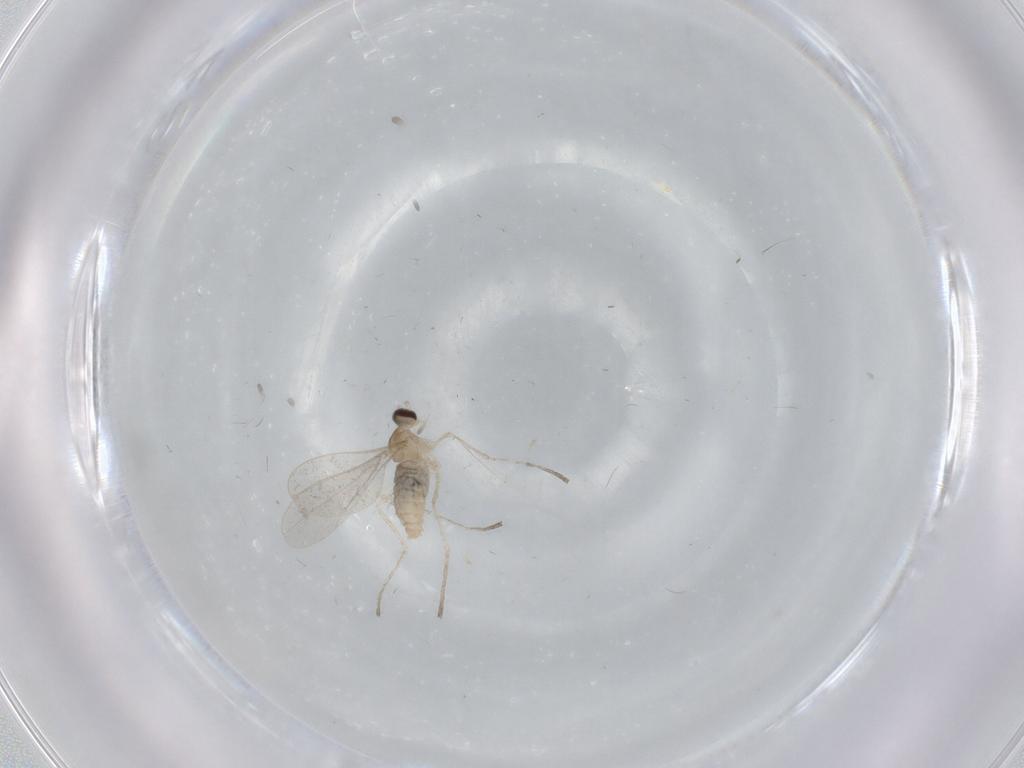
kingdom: Animalia
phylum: Arthropoda
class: Insecta
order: Diptera
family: Cecidomyiidae
